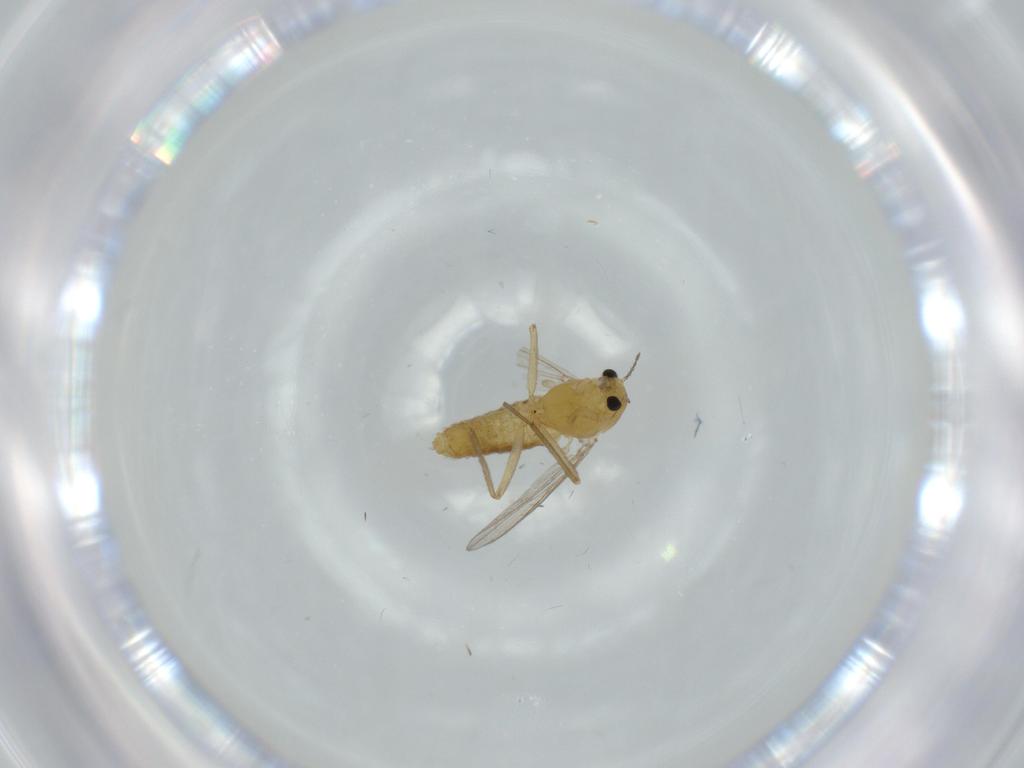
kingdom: Animalia
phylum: Arthropoda
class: Insecta
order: Diptera
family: Chironomidae
